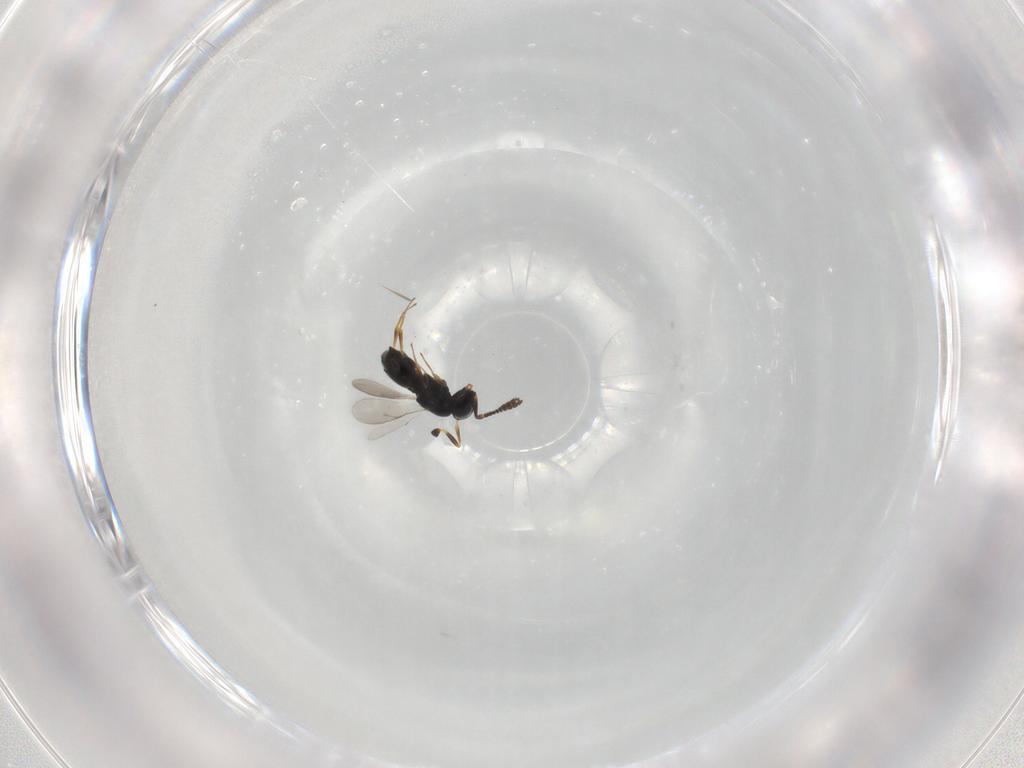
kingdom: Animalia
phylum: Arthropoda
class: Insecta
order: Hymenoptera
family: Scelionidae
